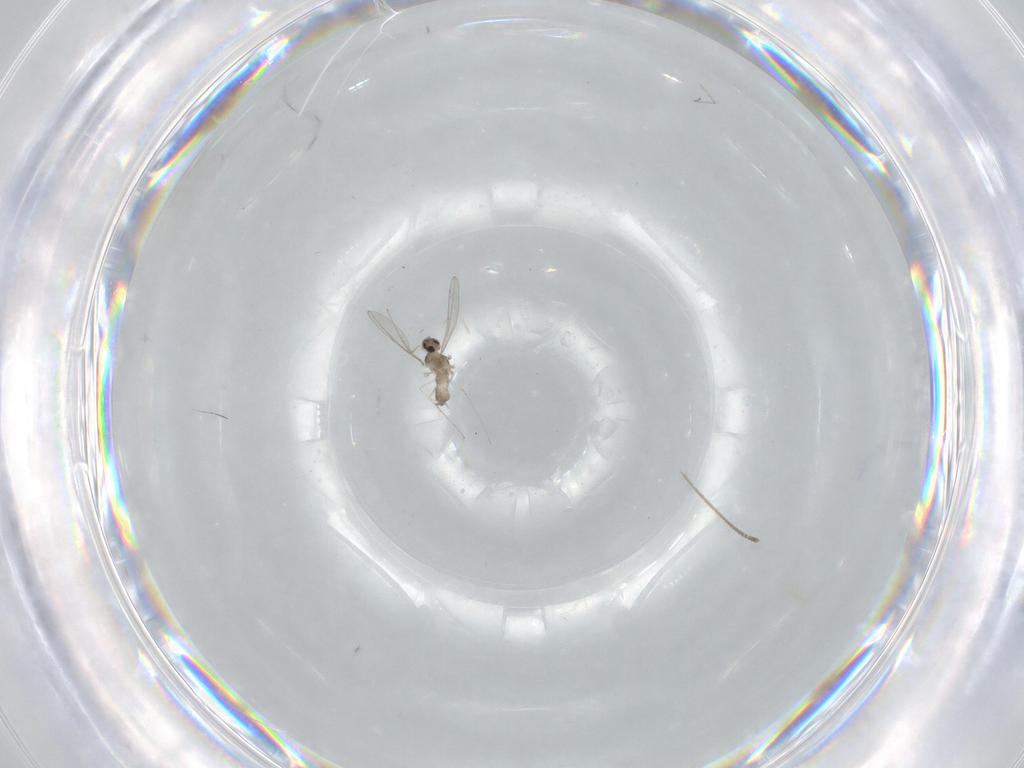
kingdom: Animalia
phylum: Arthropoda
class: Insecta
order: Diptera
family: Cecidomyiidae
